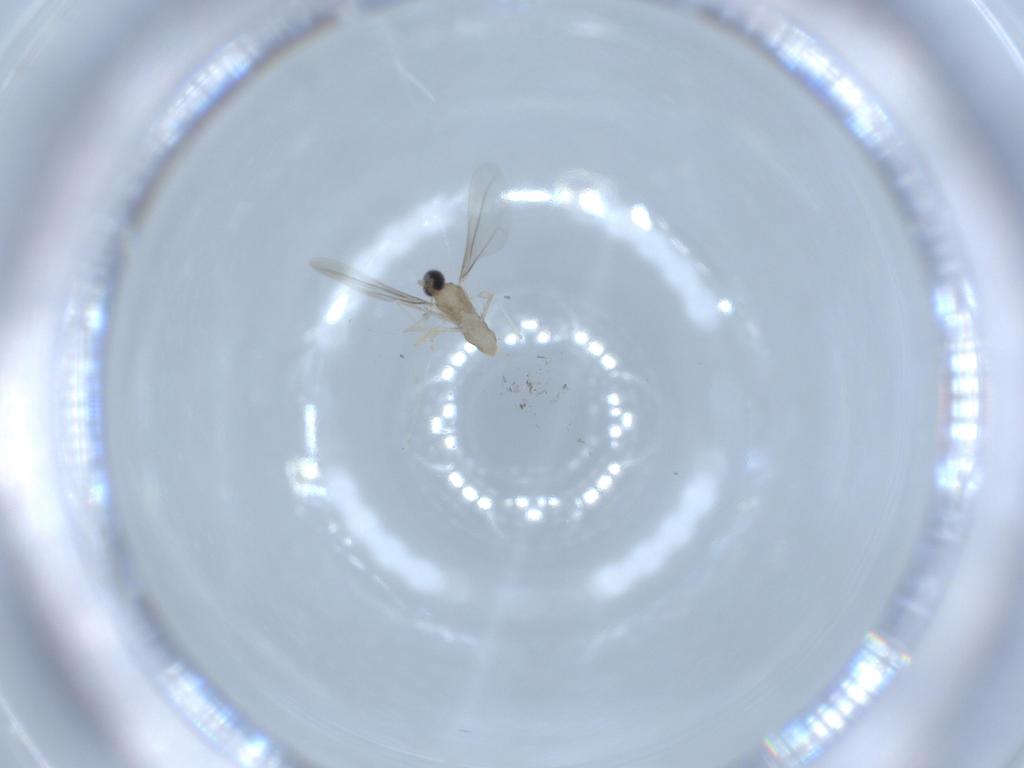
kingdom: Animalia
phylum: Arthropoda
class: Insecta
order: Diptera
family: Cecidomyiidae
